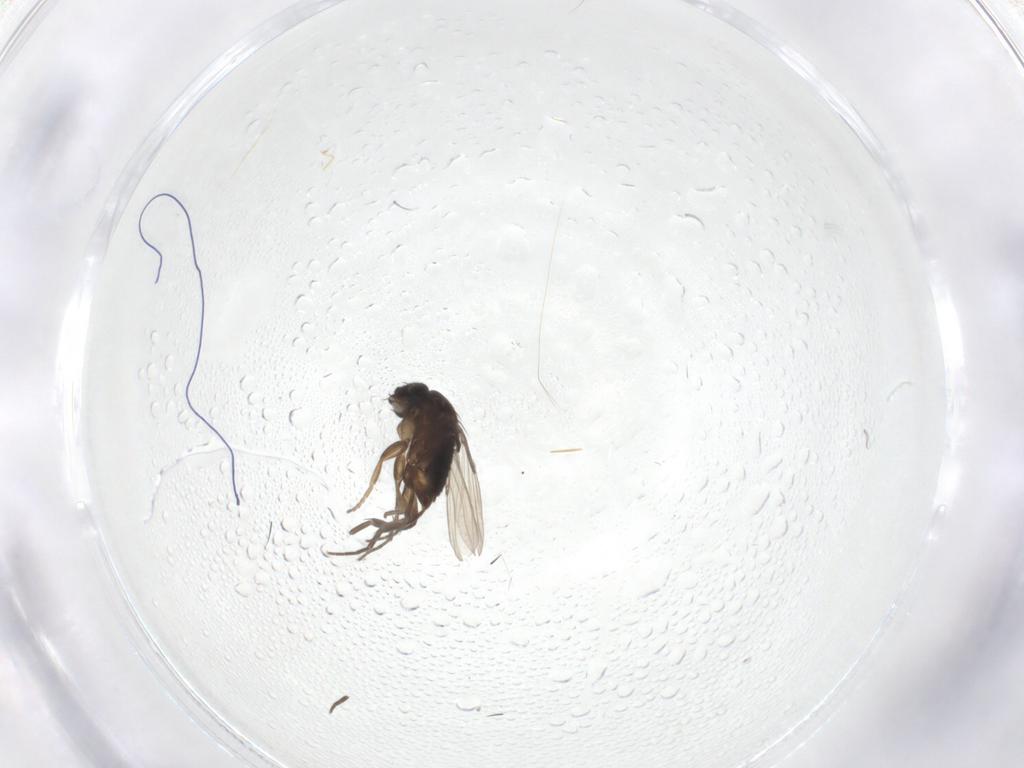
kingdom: Animalia
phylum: Arthropoda
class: Insecta
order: Diptera
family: Phoridae
